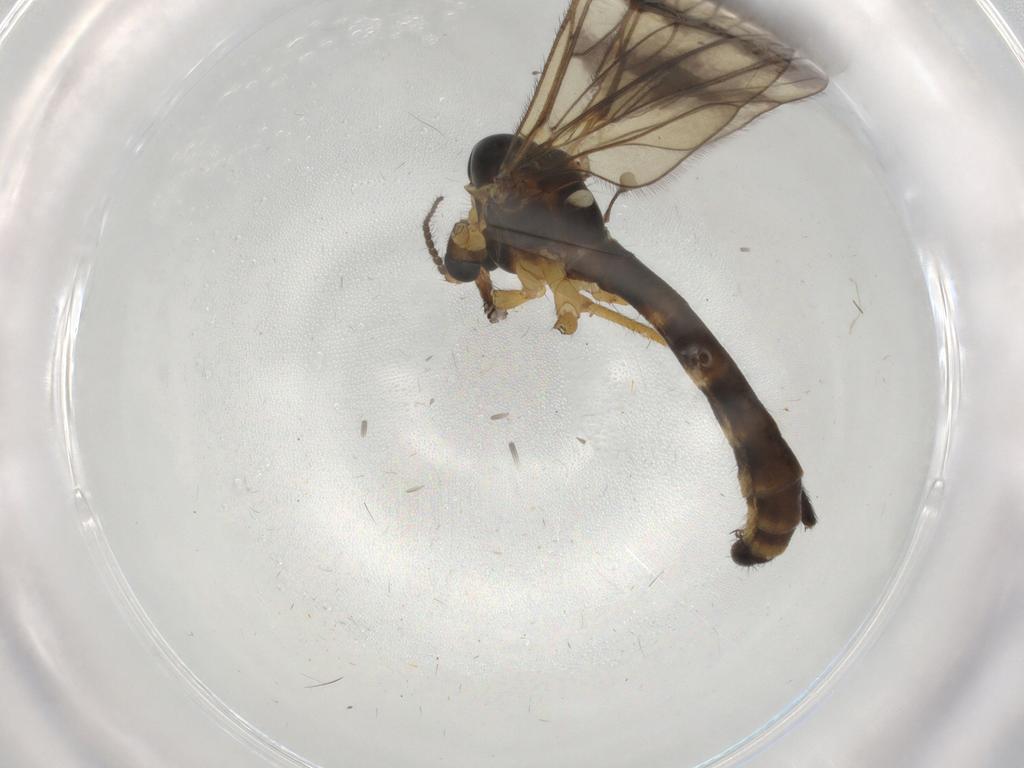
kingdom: Animalia
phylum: Arthropoda
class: Insecta
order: Diptera
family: Limoniidae
